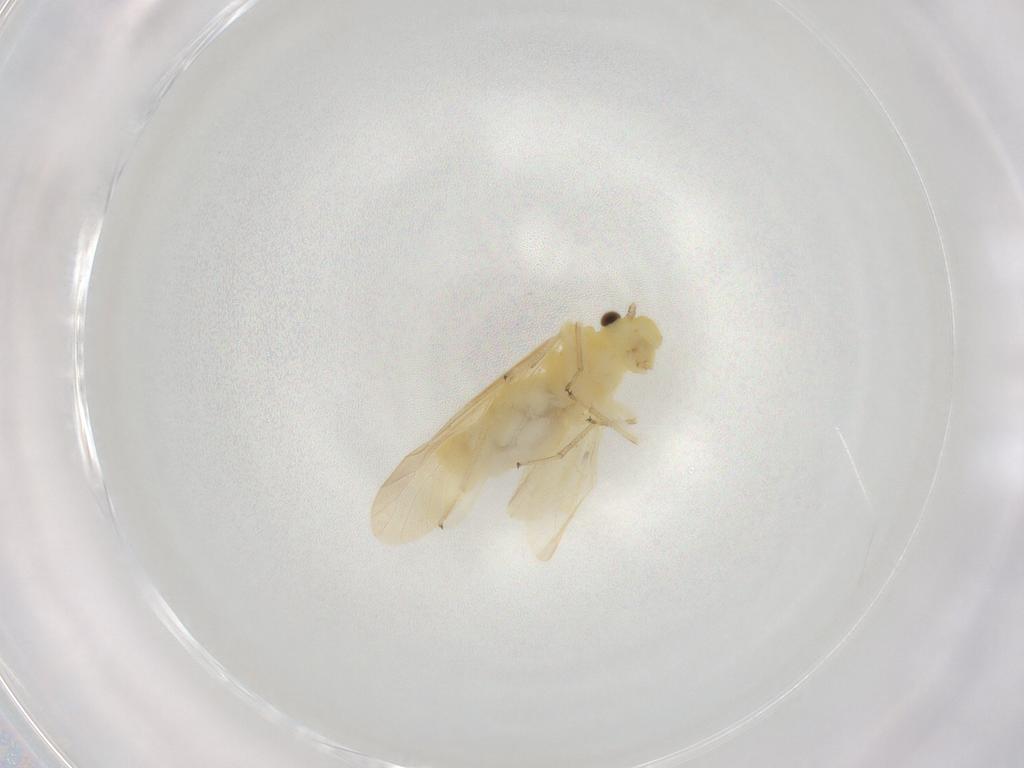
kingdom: Animalia
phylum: Arthropoda
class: Insecta
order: Psocodea
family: Caeciliusidae
